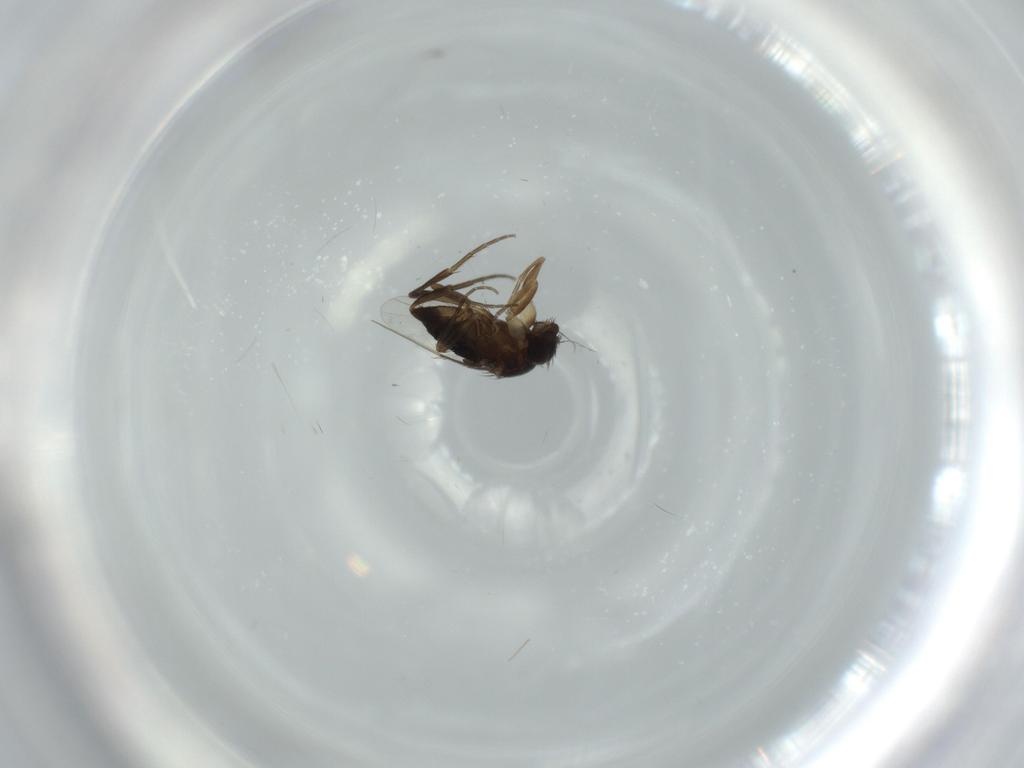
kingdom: Animalia
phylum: Arthropoda
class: Insecta
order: Diptera
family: Phoridae
